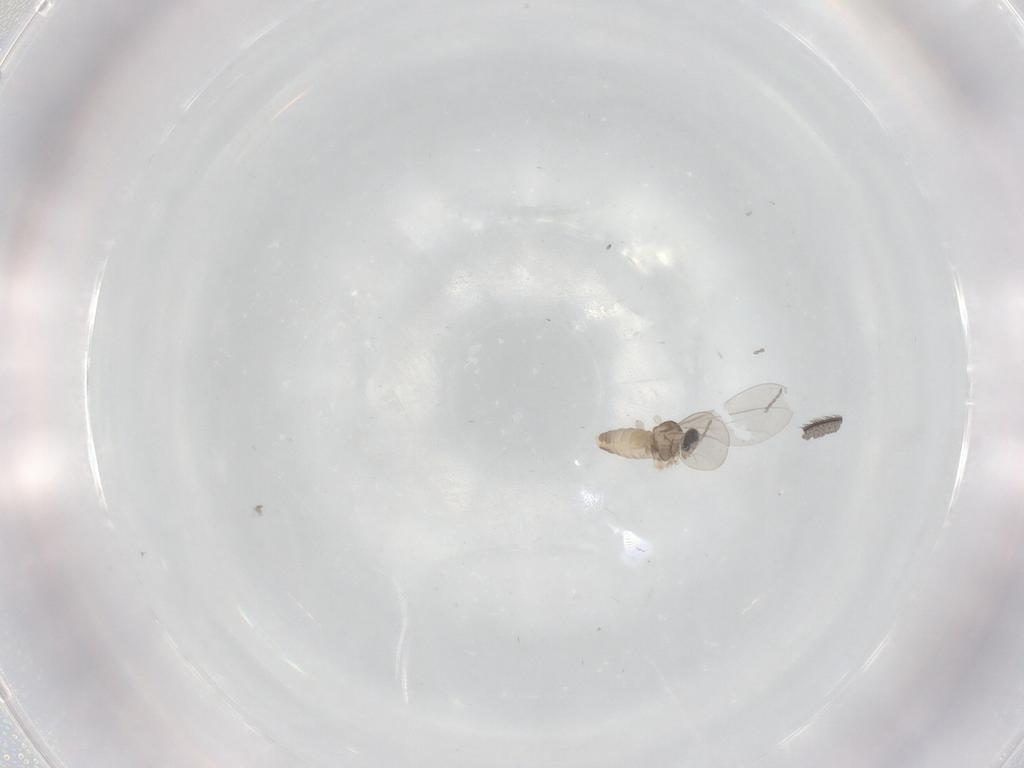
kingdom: Animalia
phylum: Arthropoda
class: Insecta
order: Diptera
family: Cecidomyiidae
